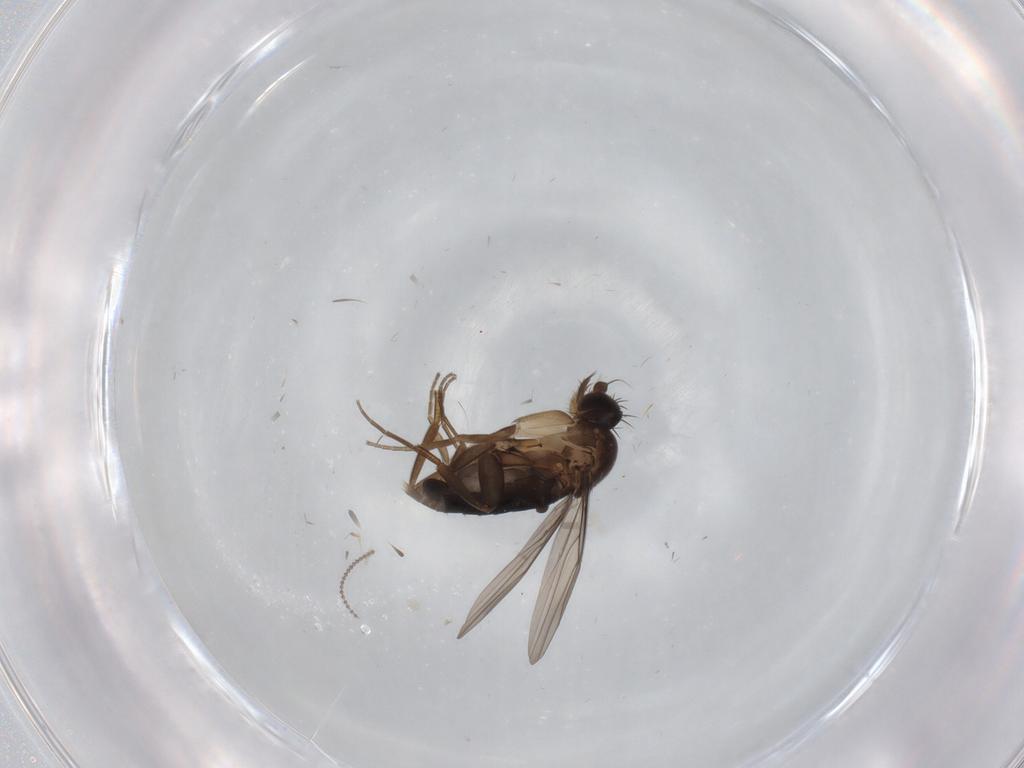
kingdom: Animalia
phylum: Arthropoda
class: Insecta
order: Diptera
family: Phoridae
